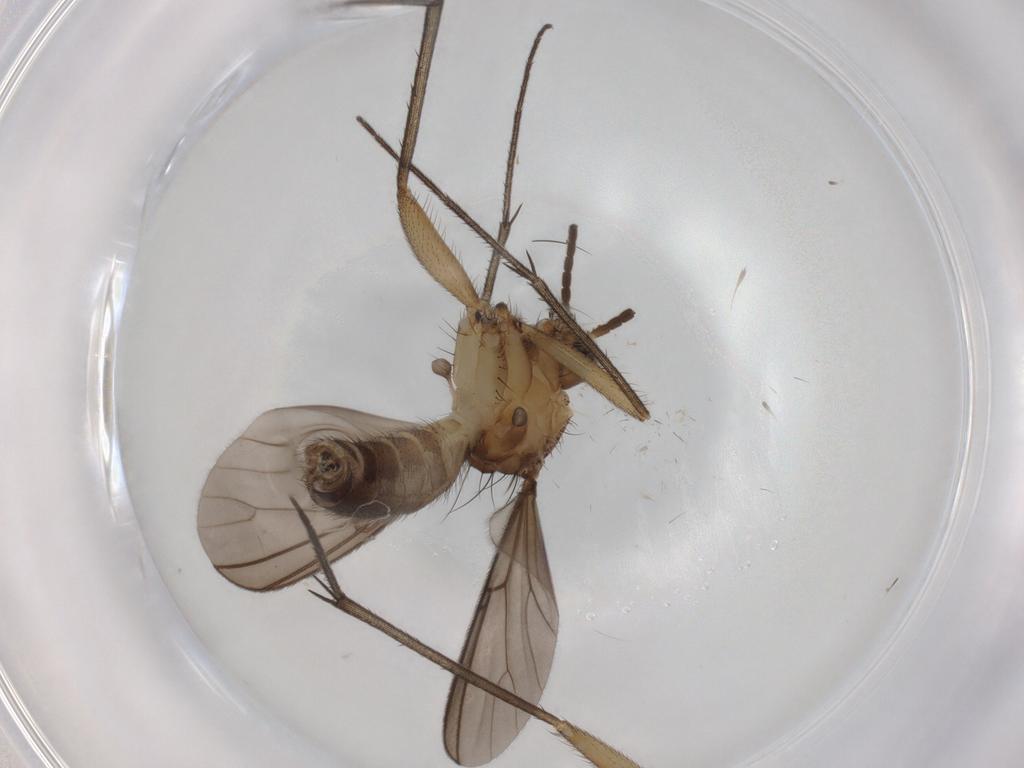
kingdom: Animalia
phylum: Arthropoda
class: Insecta
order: Diptera
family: Ceratopogonidae
